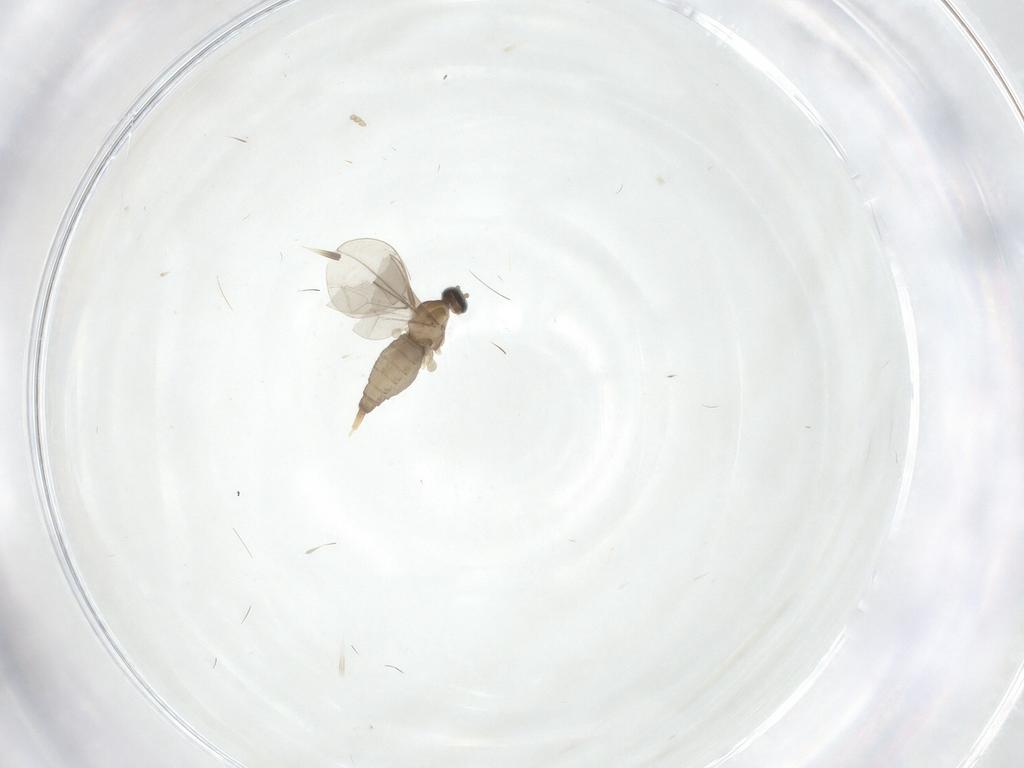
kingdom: Animalia
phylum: Arthropoda
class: Insecta
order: Diptera
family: Cecidomyiidae
